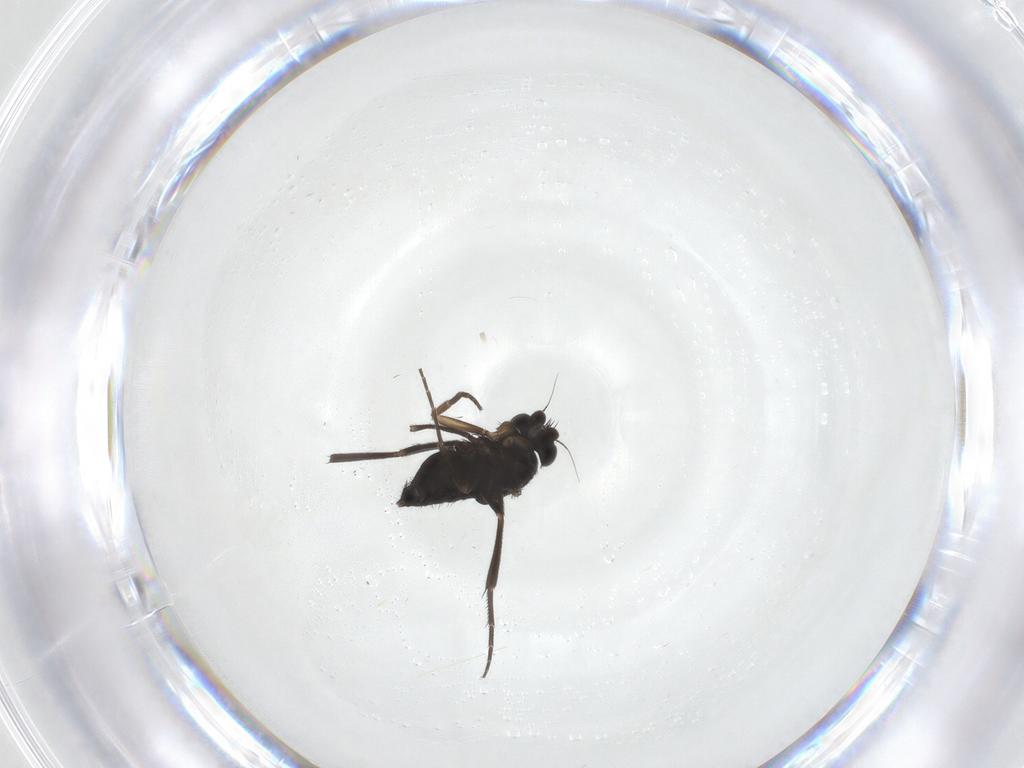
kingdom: Animalia
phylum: Arthropoda
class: Insecta
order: Diptera
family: Phoridae
